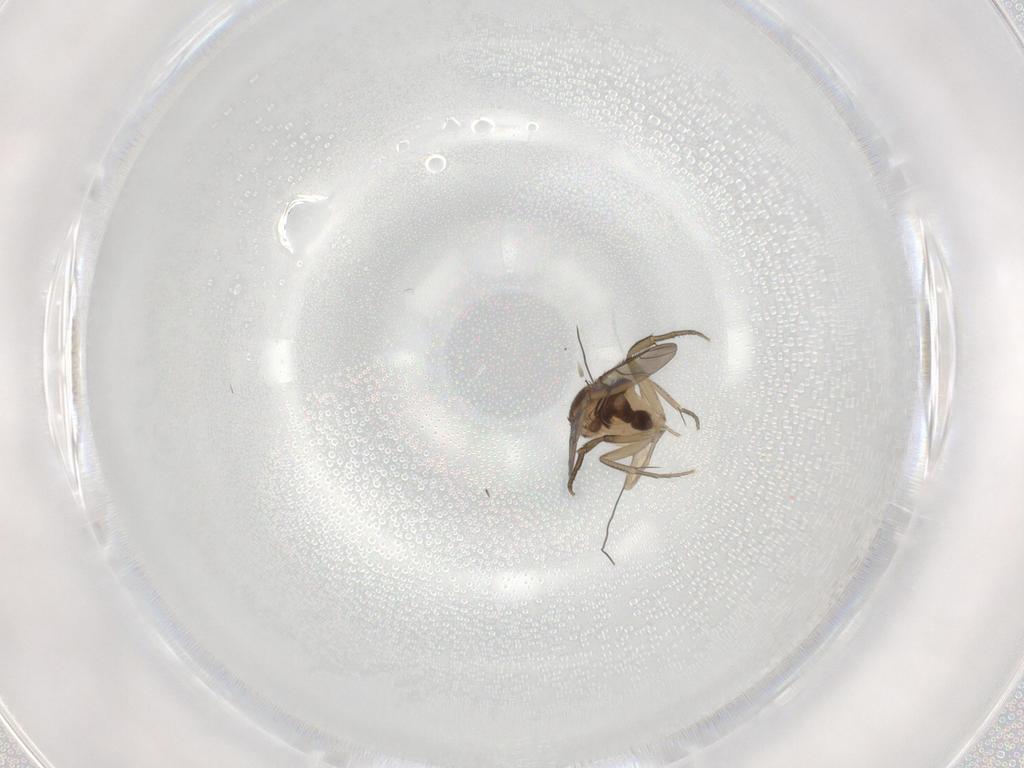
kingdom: Animalia
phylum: Arthropoda
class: Insecta
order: Diptera
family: Phoridae
